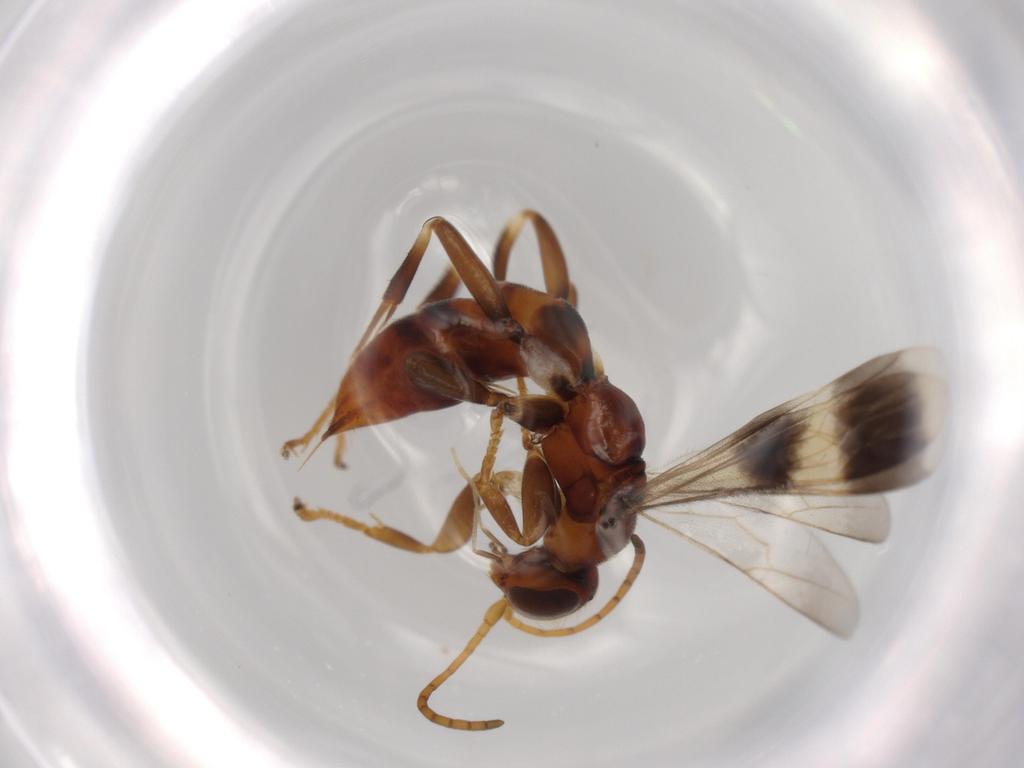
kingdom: Animalia
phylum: Arthropoda
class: Insecta
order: Hymenoptera
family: Pompilidae
